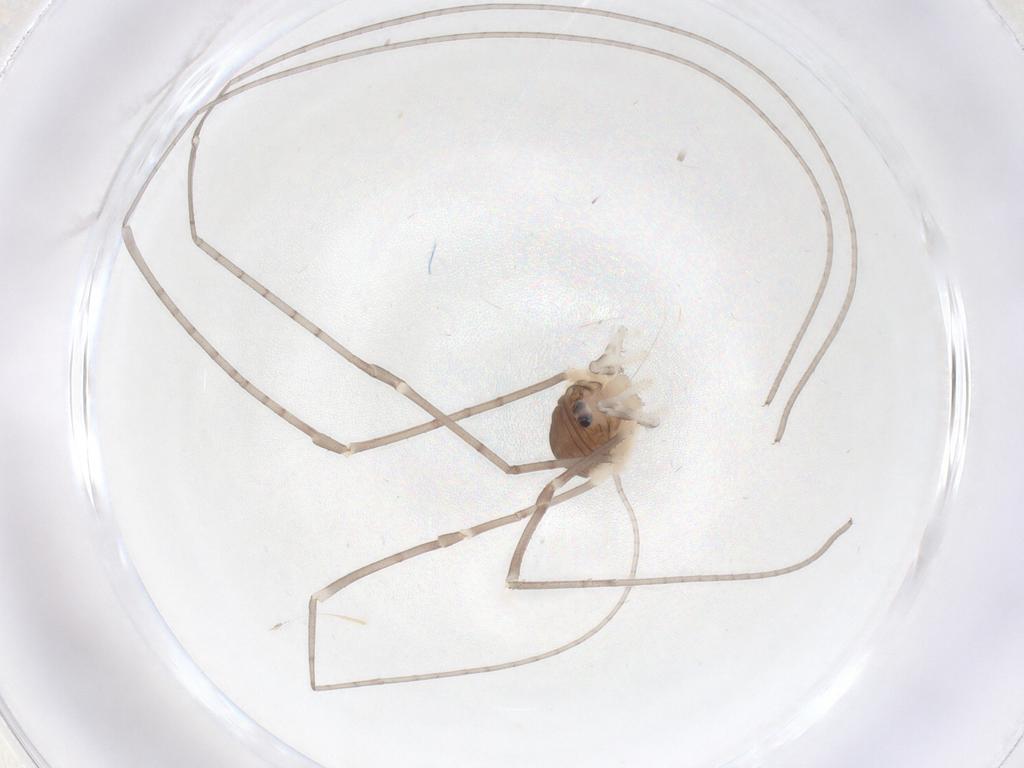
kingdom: Animalia
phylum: Arthropoda
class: Arachnida
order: Opiliones
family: Sclerosomatidae
